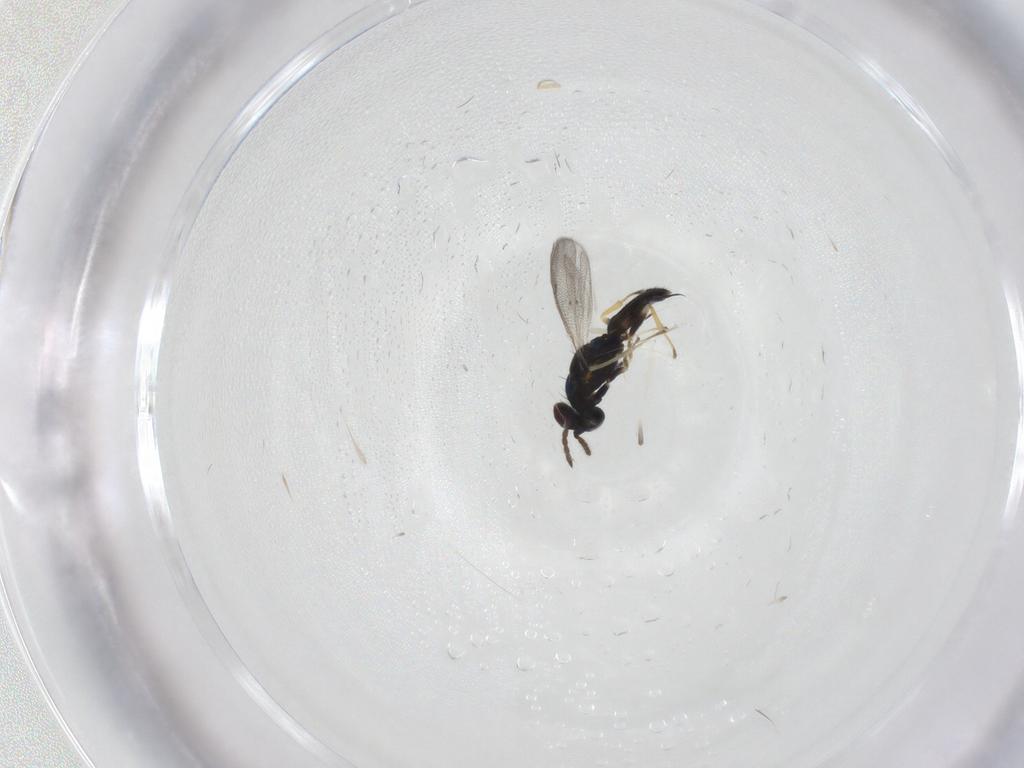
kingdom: Animalia
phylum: Arthropoda
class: Insecta
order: Hymenoptera
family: Eulophidae
